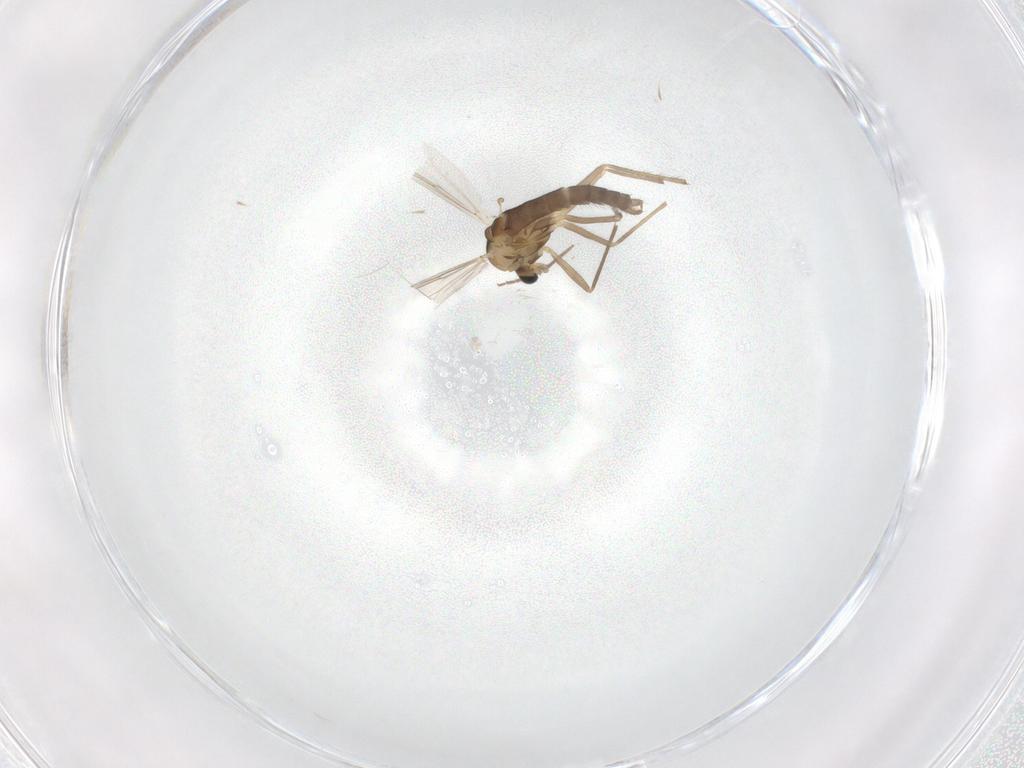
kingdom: Animalia
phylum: Arthropoda
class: Insecta
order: Diptera
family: Chironomidae
